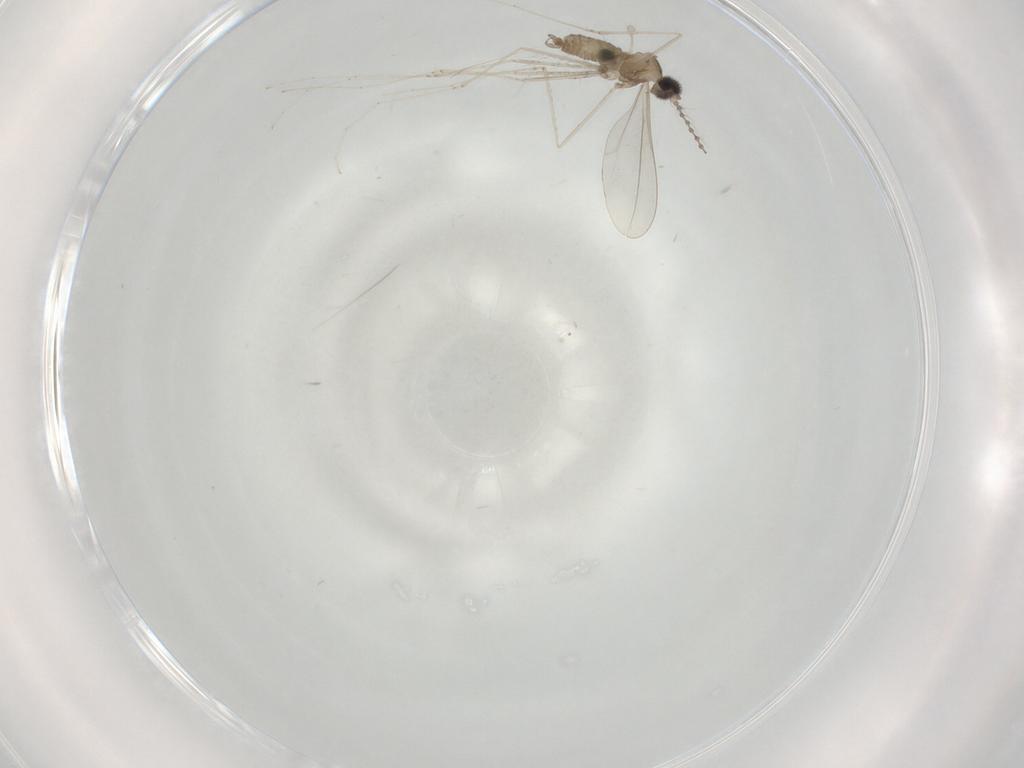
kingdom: Animalia
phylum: Arthropoda
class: Insecta
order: Diptera
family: Cecidomyiidae
